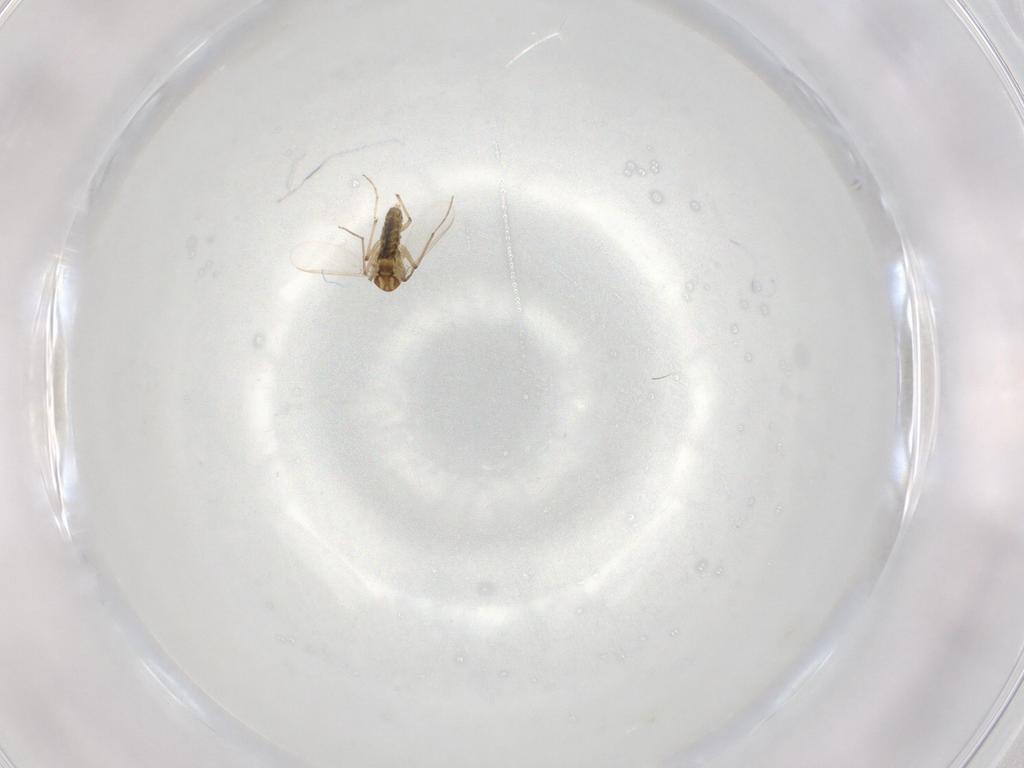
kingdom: Animalia
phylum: Arthropoda
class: Insecta
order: Diptera
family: Chironomidae
